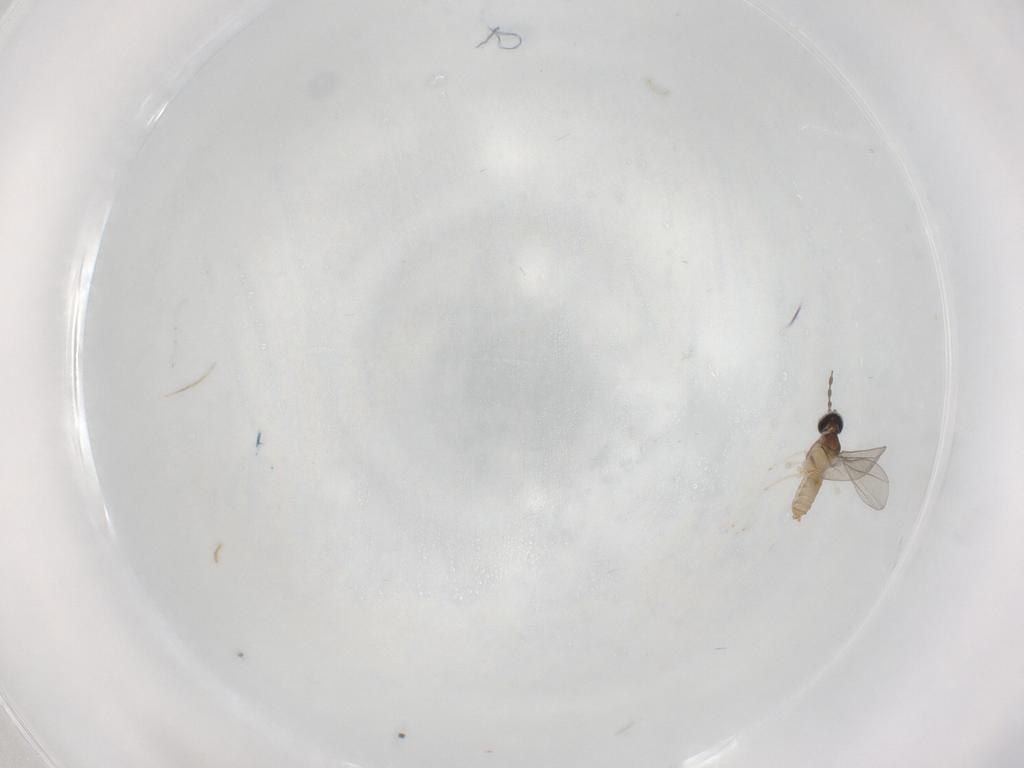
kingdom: Animalia
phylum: Arthropoda
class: Insecta
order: Diptera
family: Cecidomyiidae
